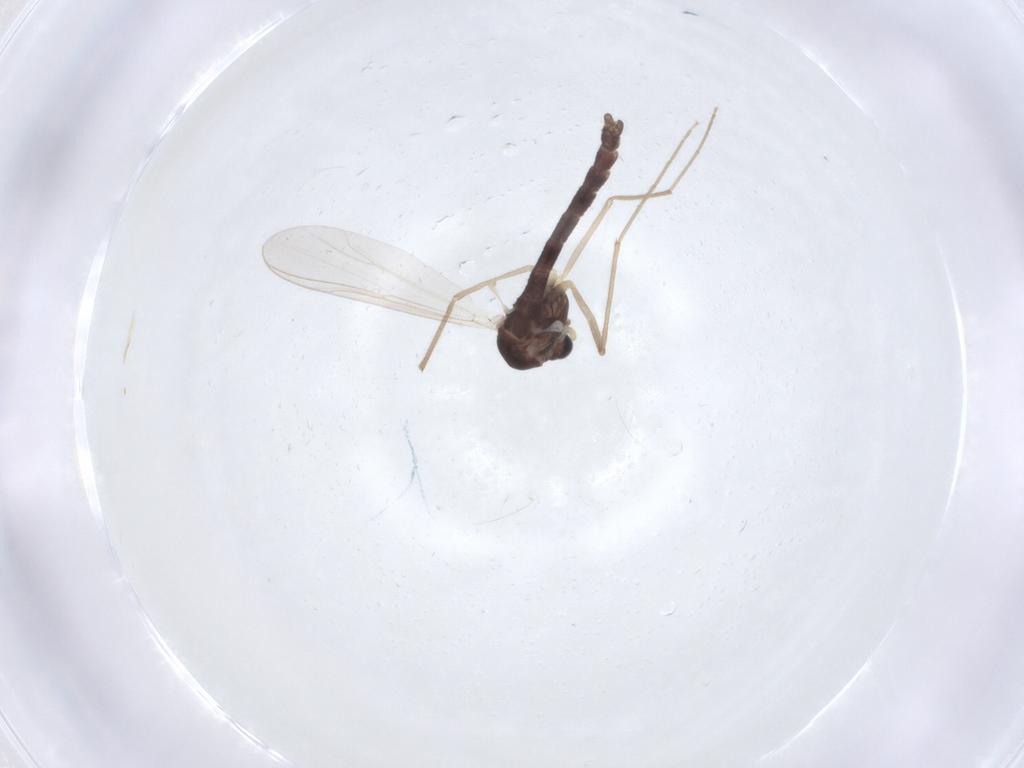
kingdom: Animalia
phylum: Arthropoda
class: Insecta
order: Diptera
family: Chironomidae
